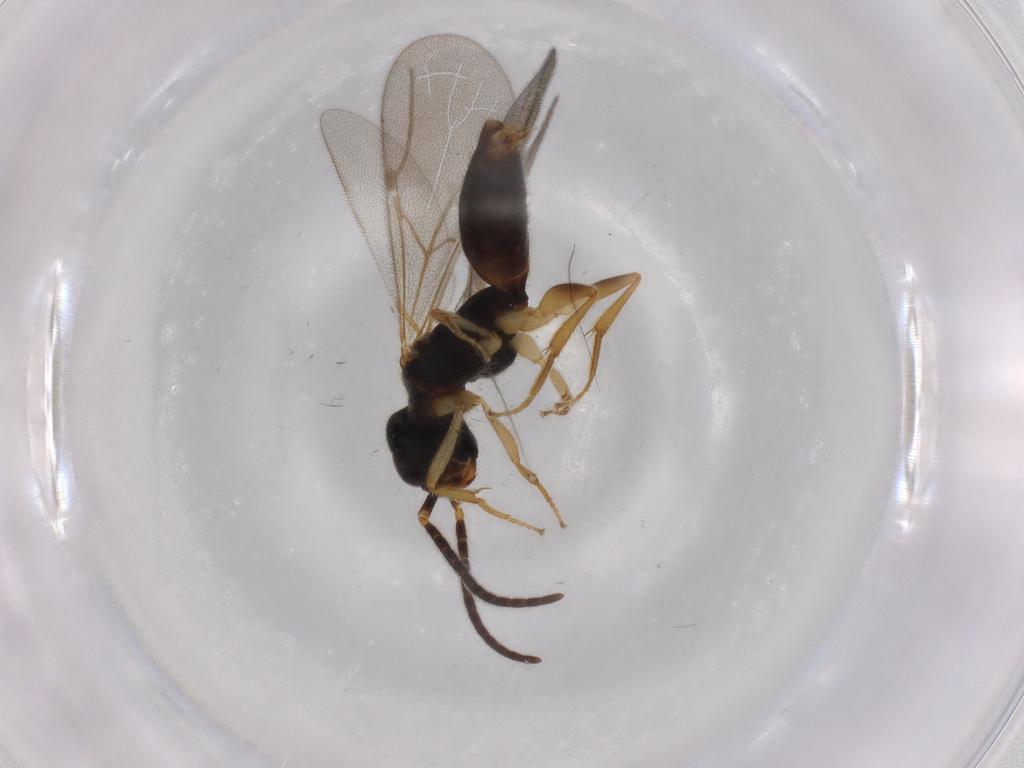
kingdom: Animalia
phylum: Arthropoda
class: Insecta
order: Hymenoptera
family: Bethylidae
